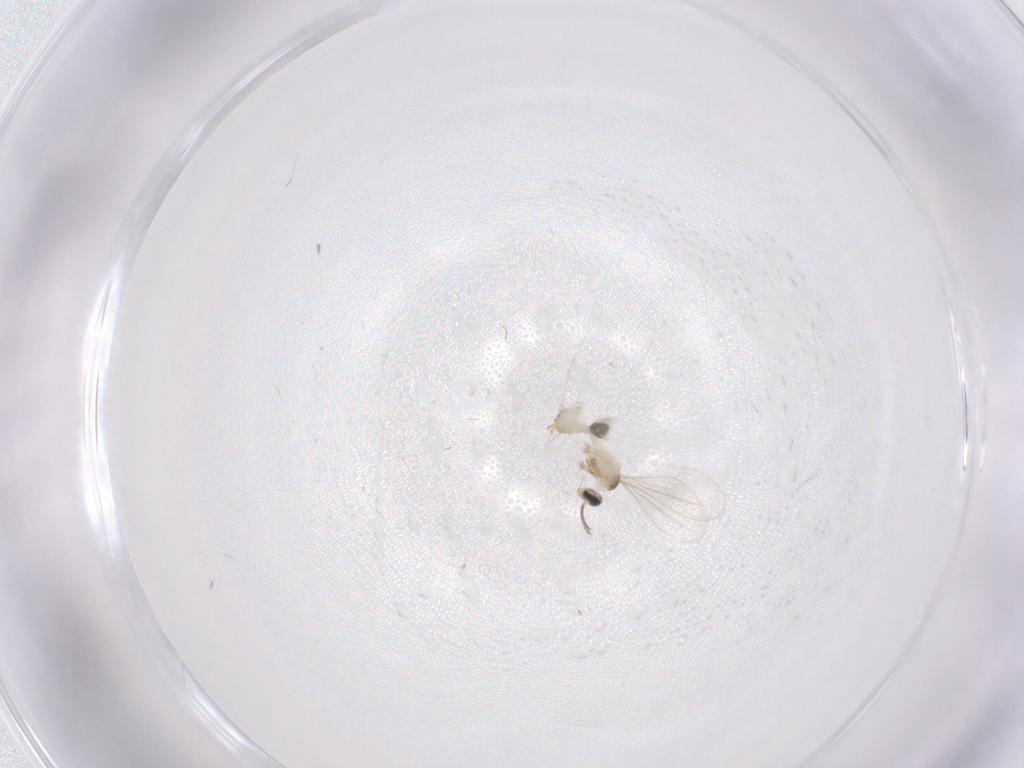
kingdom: Animalia
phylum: Arthropoda
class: Insecta
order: Diptera
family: Cecidomyiidae
